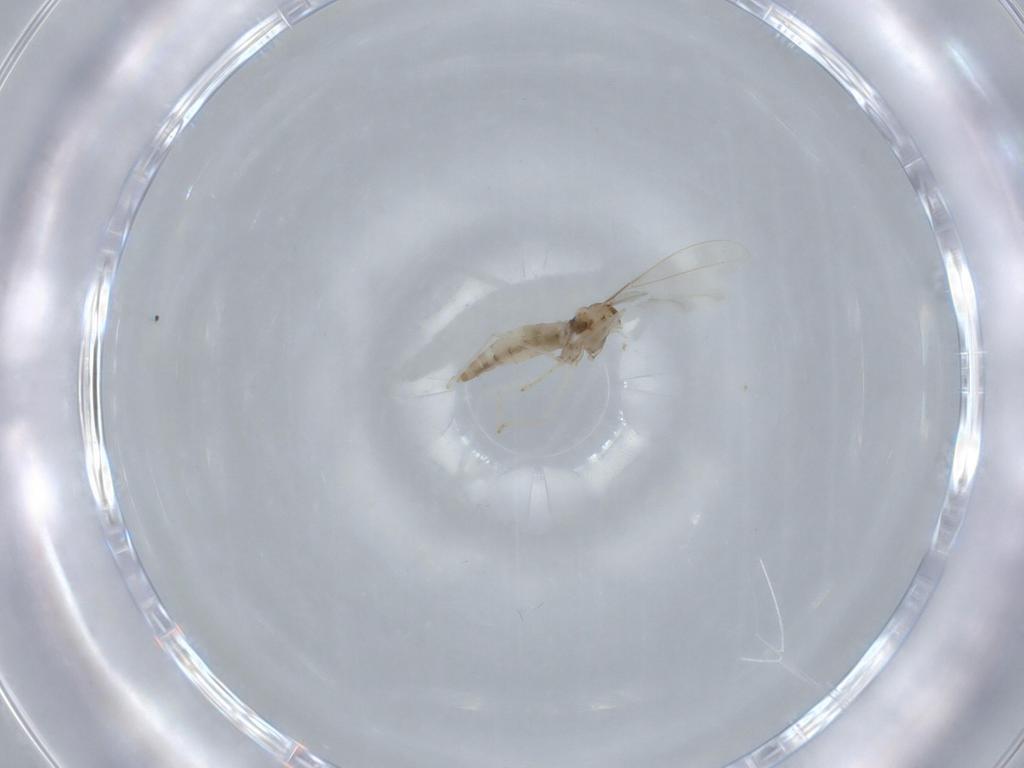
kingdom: Animalia
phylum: Arthropoda
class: Insecta
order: Diptera
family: Cecidomyiidae
